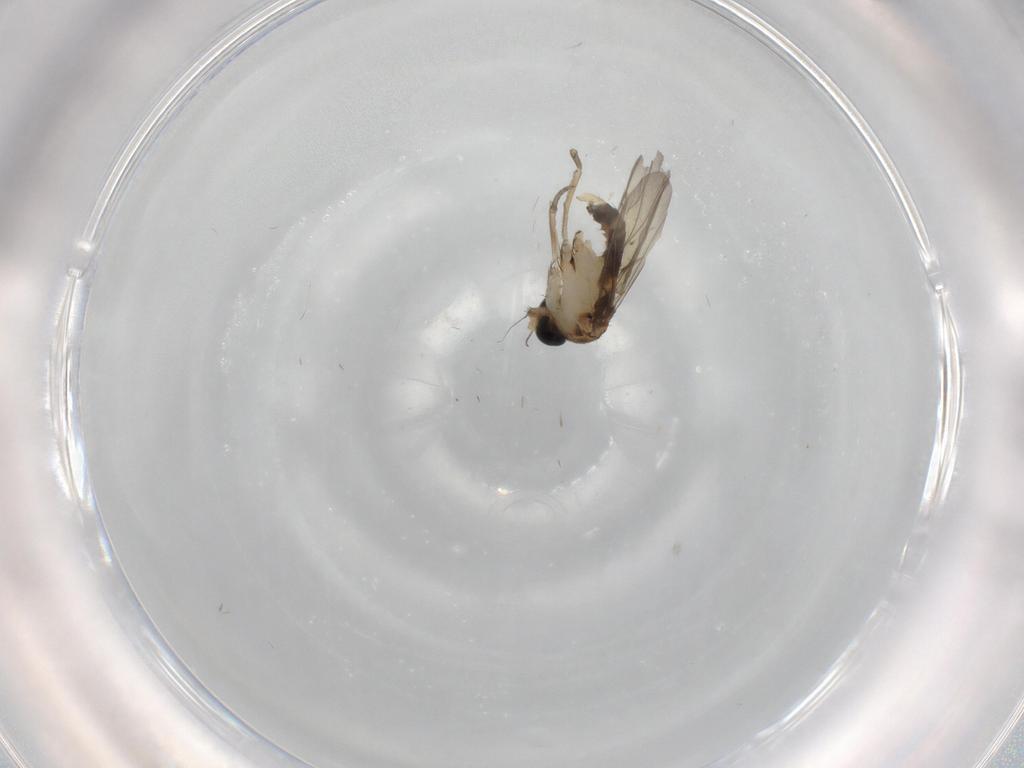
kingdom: Animalia
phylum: Arthropoda
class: Insecta
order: Diptera
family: Phoridae
